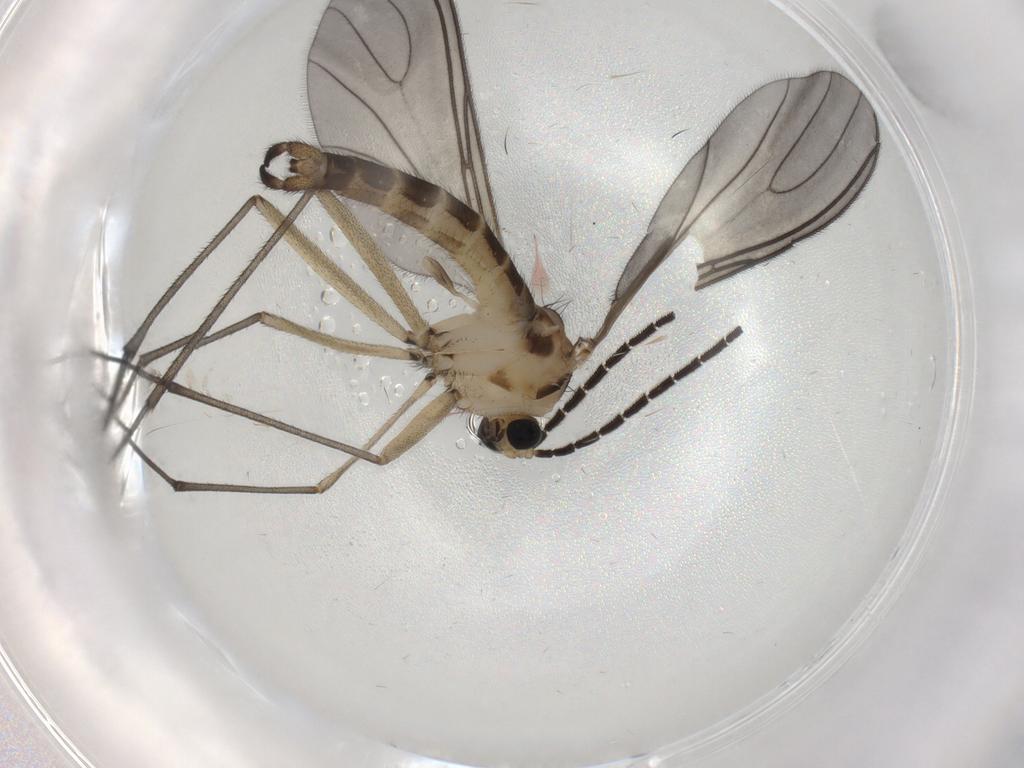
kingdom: Animalia
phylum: Arthropoda
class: Insecta
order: Diptera
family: Sciaridae
